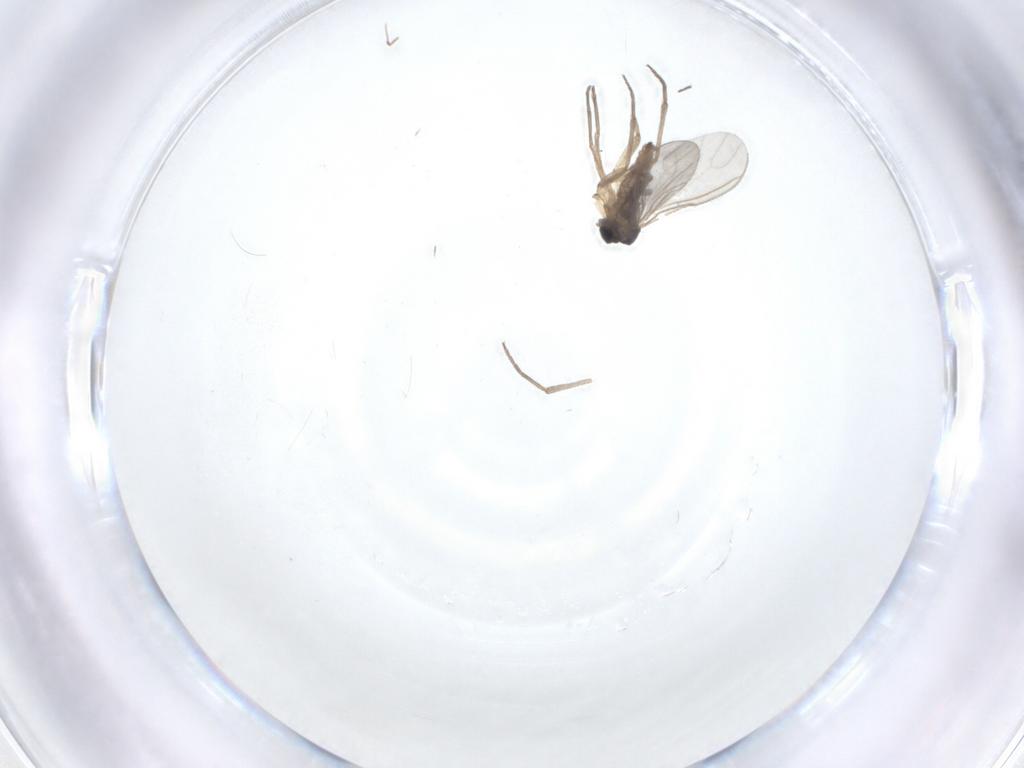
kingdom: Animalia
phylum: Arthropoda
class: Insecta
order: Diptera
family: Sciaridae
